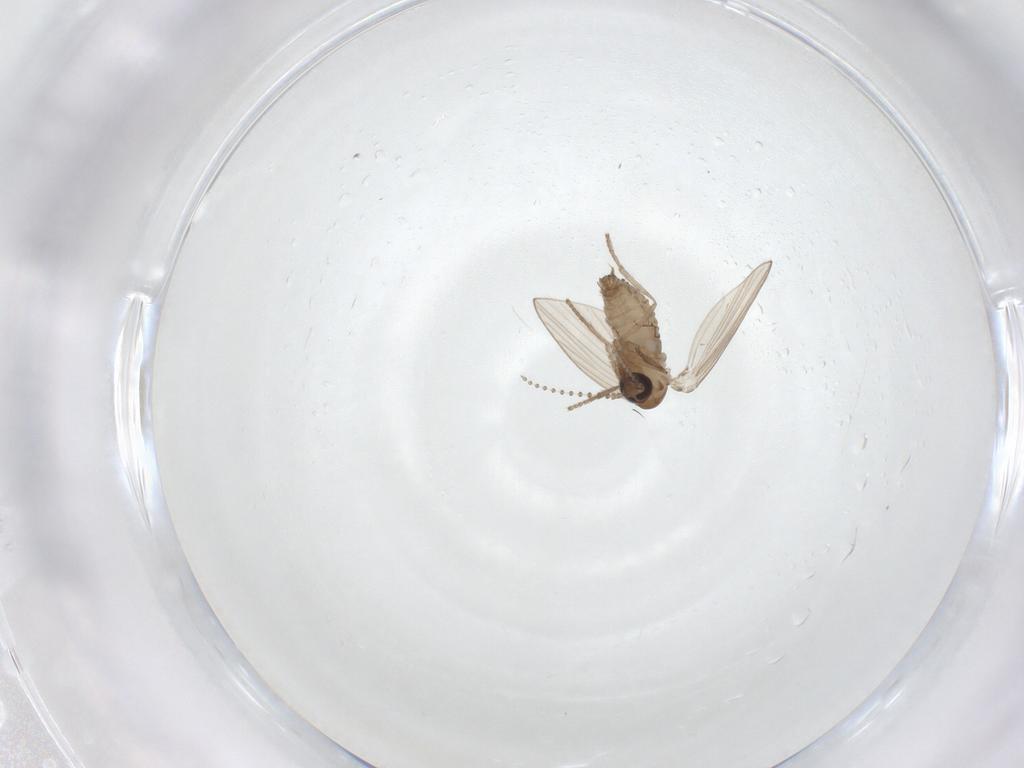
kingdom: Animalia
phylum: Arthropoda
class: Insecta
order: Diptera
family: Psychodidae
